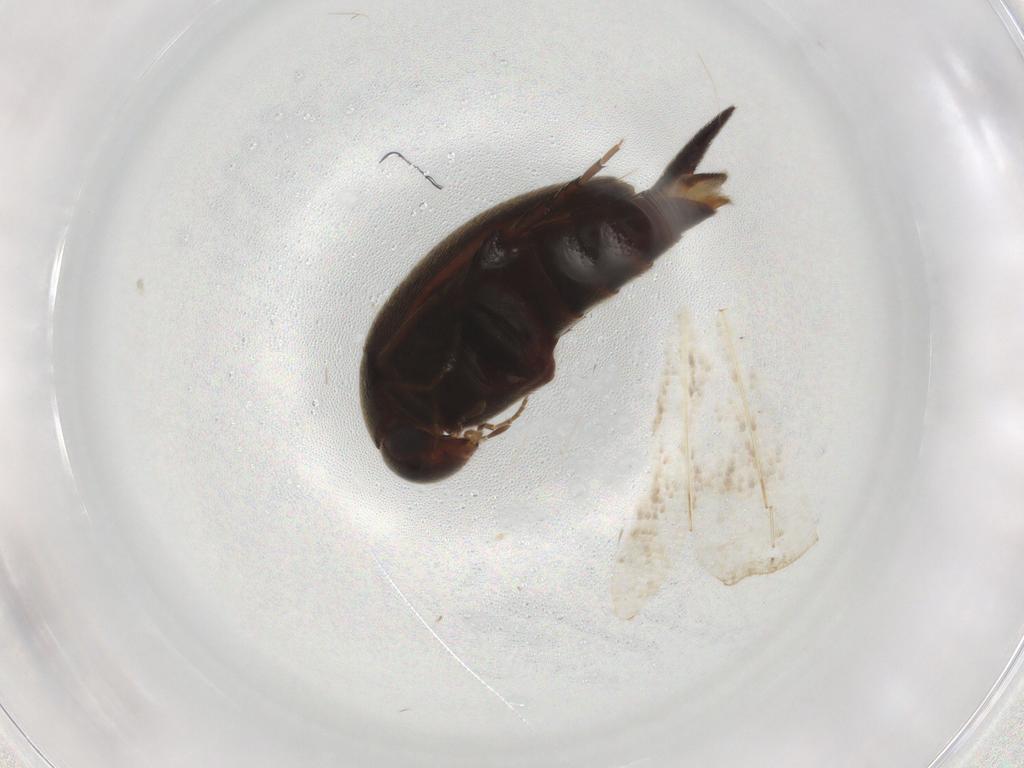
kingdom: Animalia
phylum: Arthropoda
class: Insecta
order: Coleoptera
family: Mordellidae
